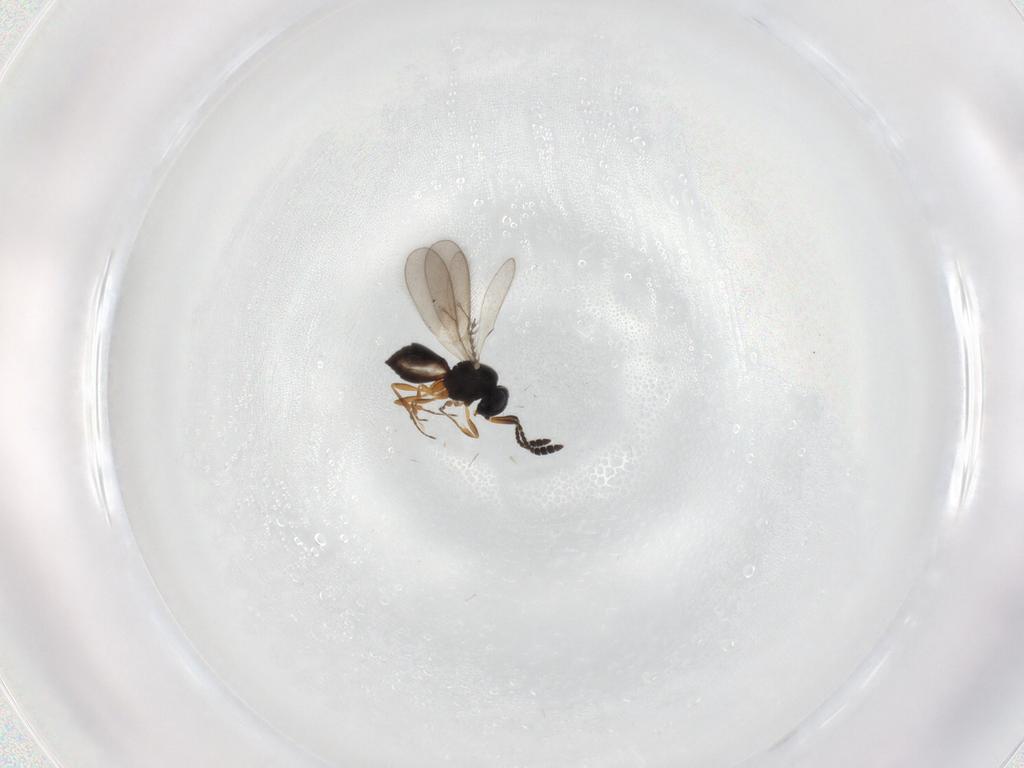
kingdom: Animalia
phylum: Arthropoda
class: Insecta
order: Hymenoptera
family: Scelionidae
